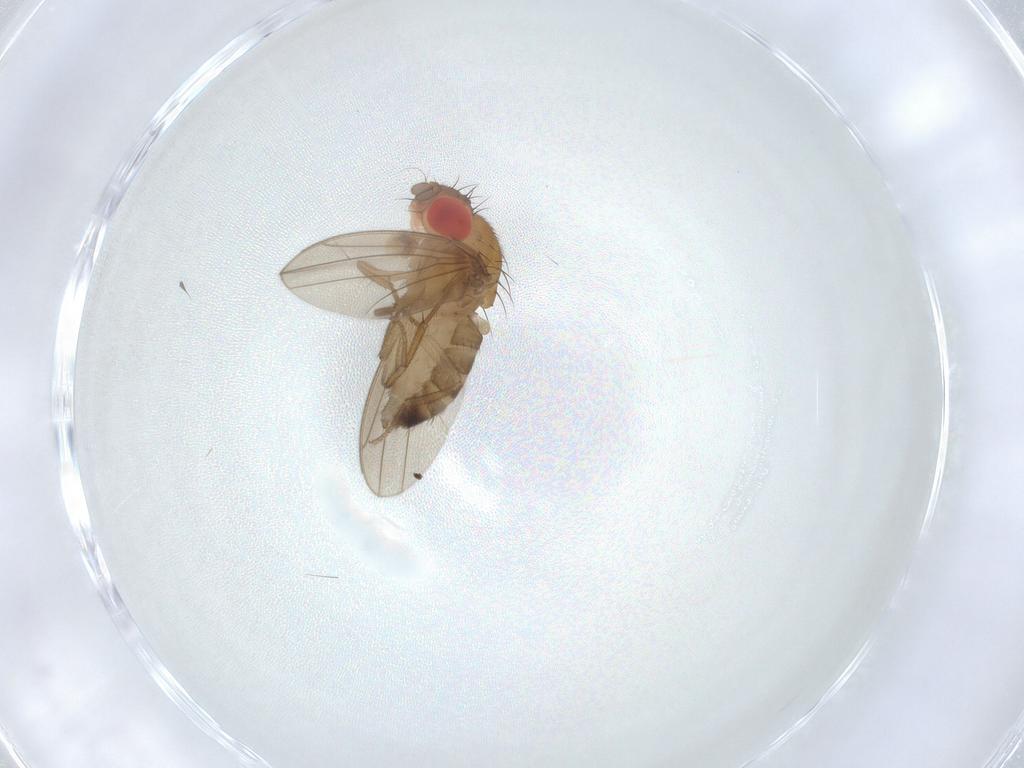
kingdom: Animalia
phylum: Arthropoda
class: Insecta
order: Diptera
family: Drosophilidae
